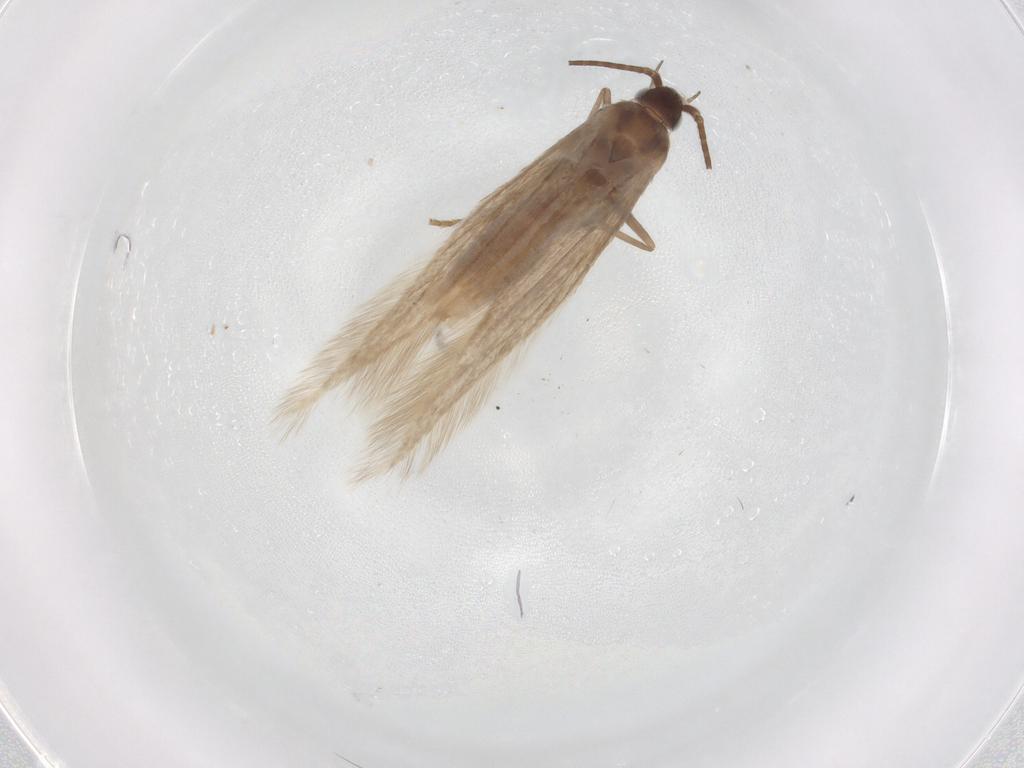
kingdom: Animalia
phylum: Arthropoda
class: Insecta
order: Lepidoptera
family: Coleophoridae
